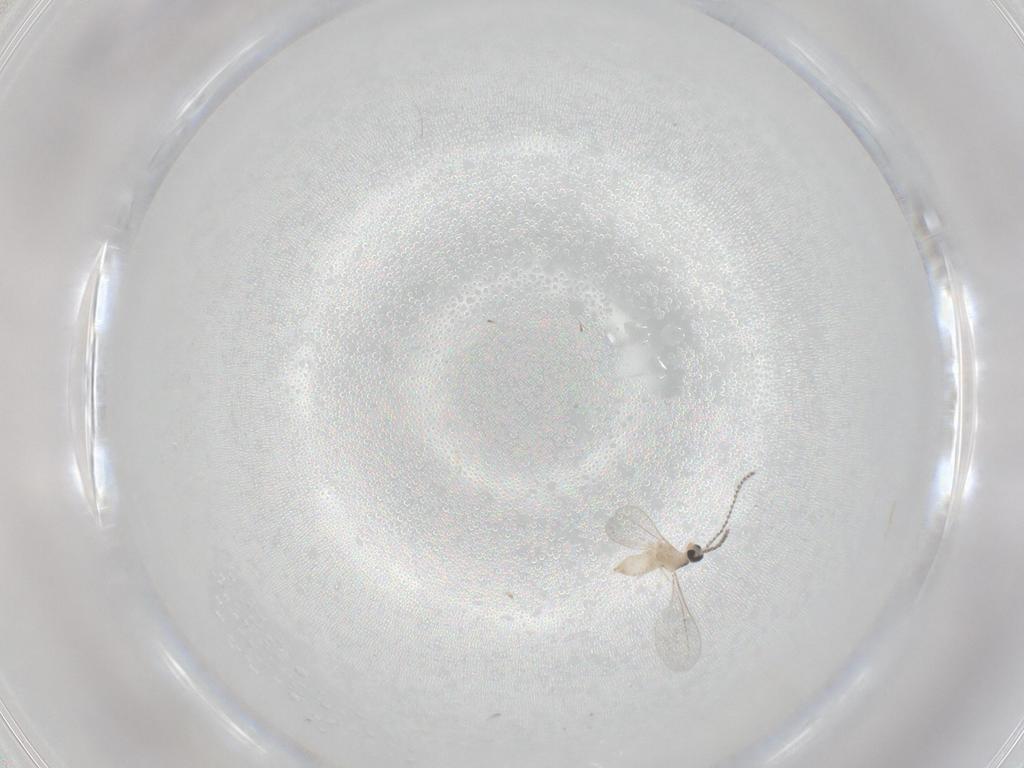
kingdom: Animalia
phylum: Arthropoda
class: Insecta
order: Diptera
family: Cecidomyiidae
